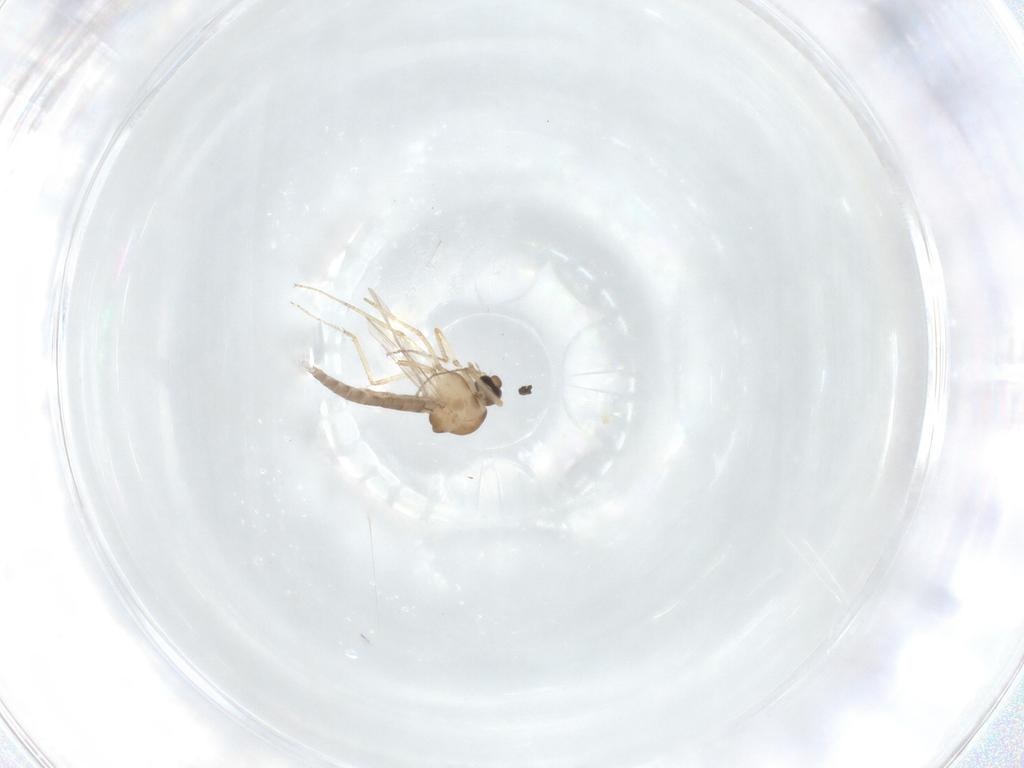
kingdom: Animalia
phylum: Arthropoda
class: Insecta
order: Diptera
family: Ceratopogonidae
